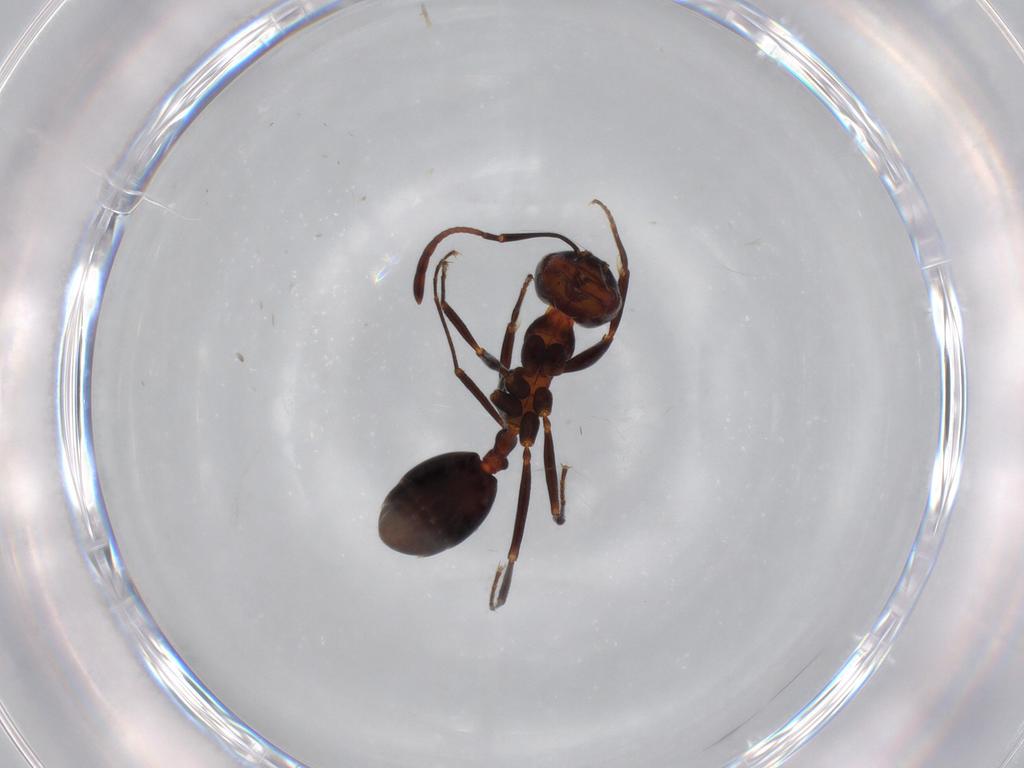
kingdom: Animalia
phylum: Arthropoda
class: Insecta
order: Hymenoptera
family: Formicidae
